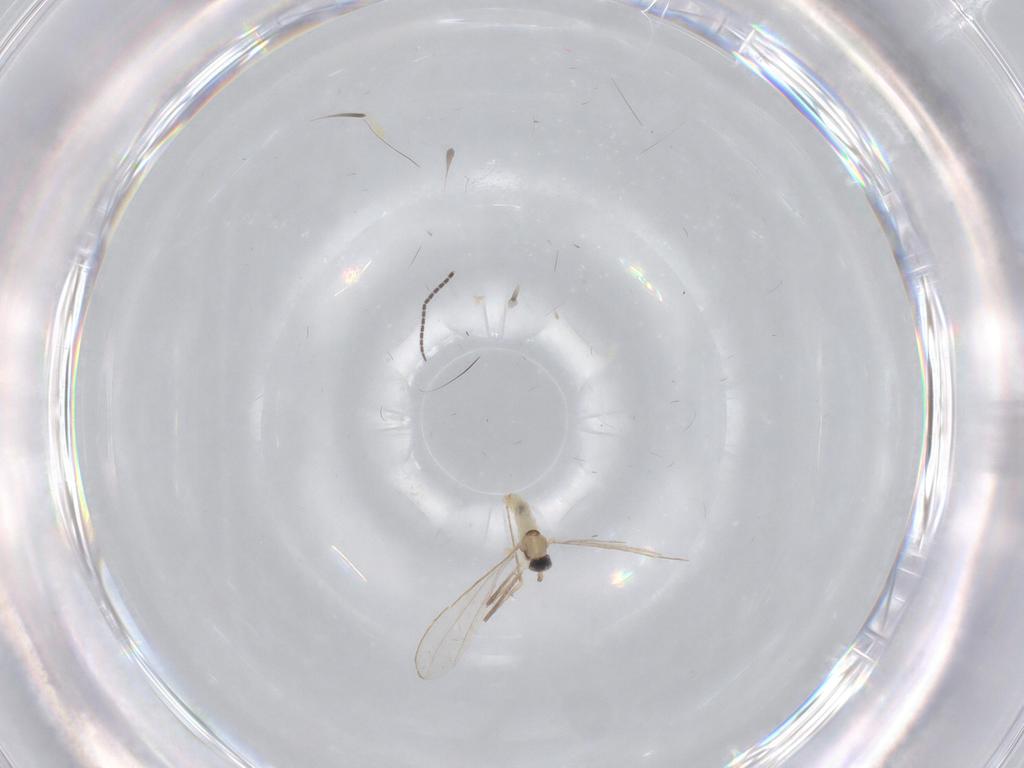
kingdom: Animalia
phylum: Arthropoda
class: Insecta
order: Diptera
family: Cecidomyiidae
